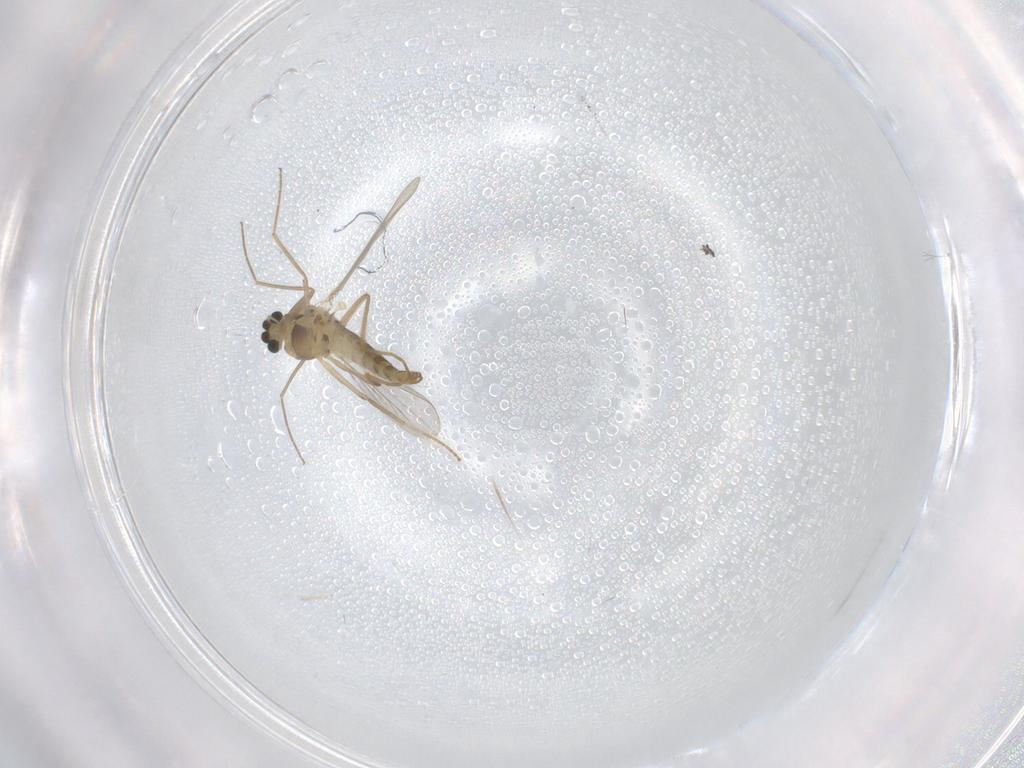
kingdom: Animalia
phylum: Arthropoda
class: Insecta
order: Diptera
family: Chironomidae
